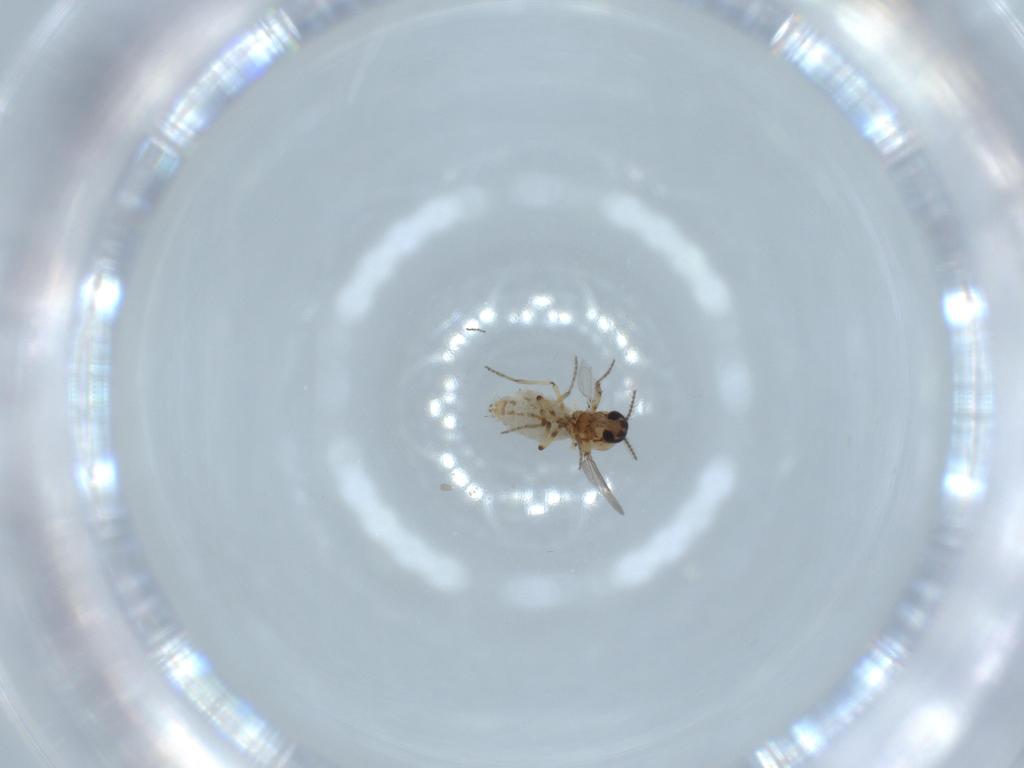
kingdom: Animalia
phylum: Arthropoda
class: Insecta
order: Diptera
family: Ceratopogonidae
